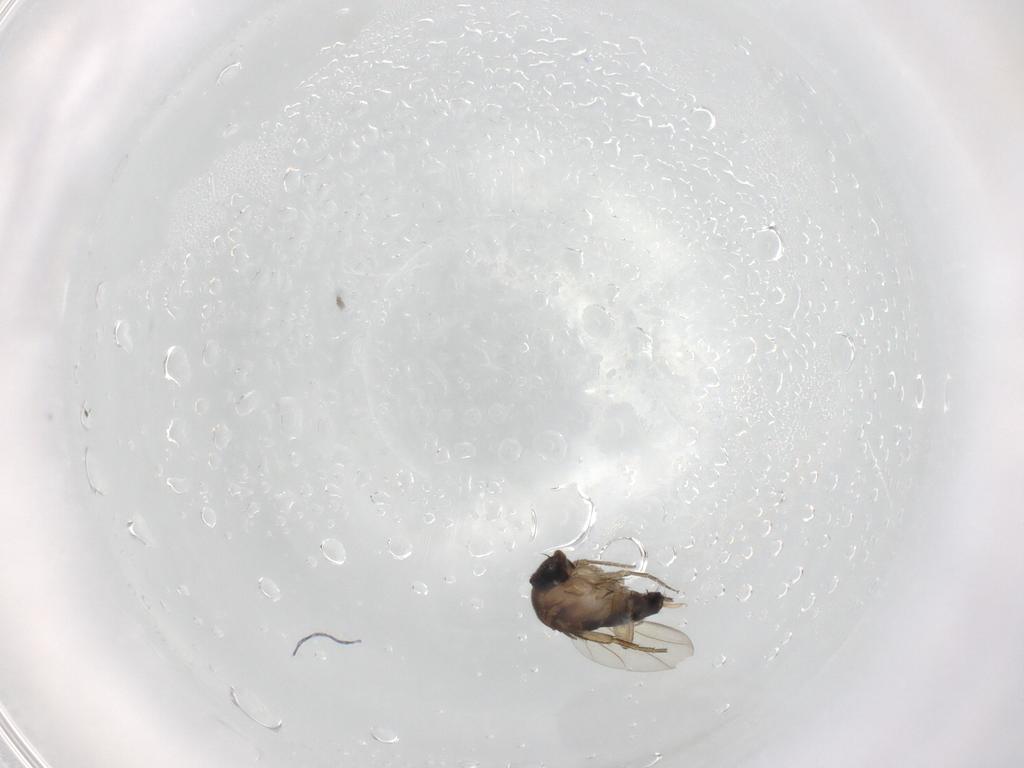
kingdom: Animalia
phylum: Arthropoda
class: Insecta
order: Diptera
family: Phoridae
